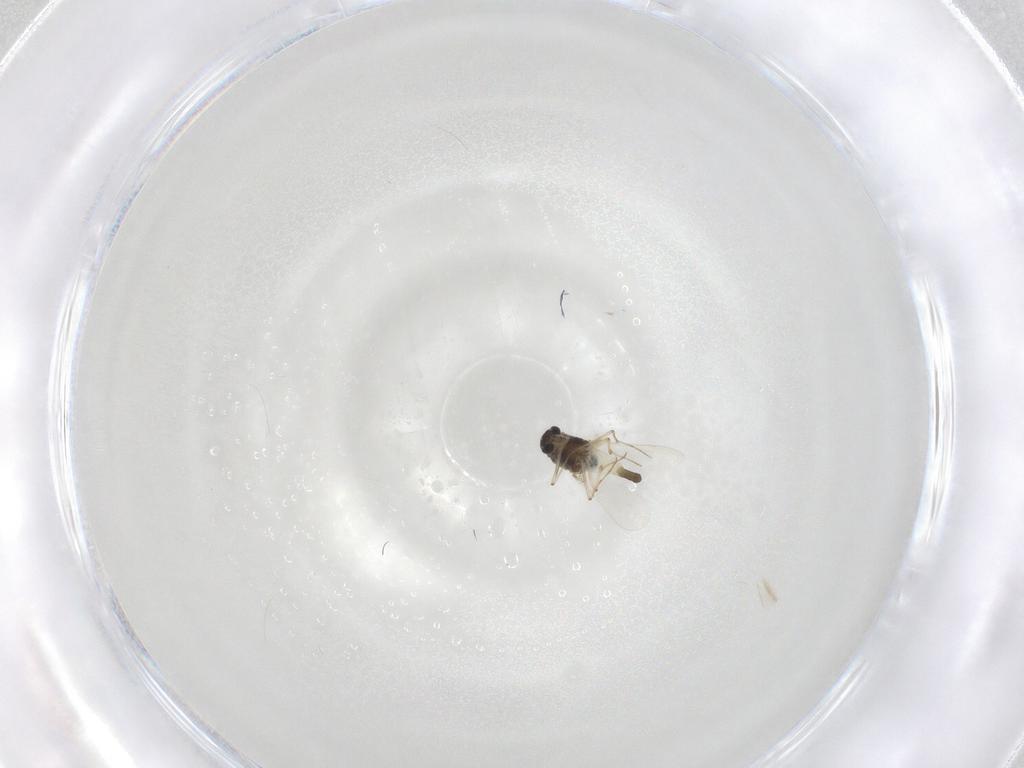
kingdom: Animalia
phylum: Arthropoda
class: Insecta
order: Diptera
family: Chironomidae
